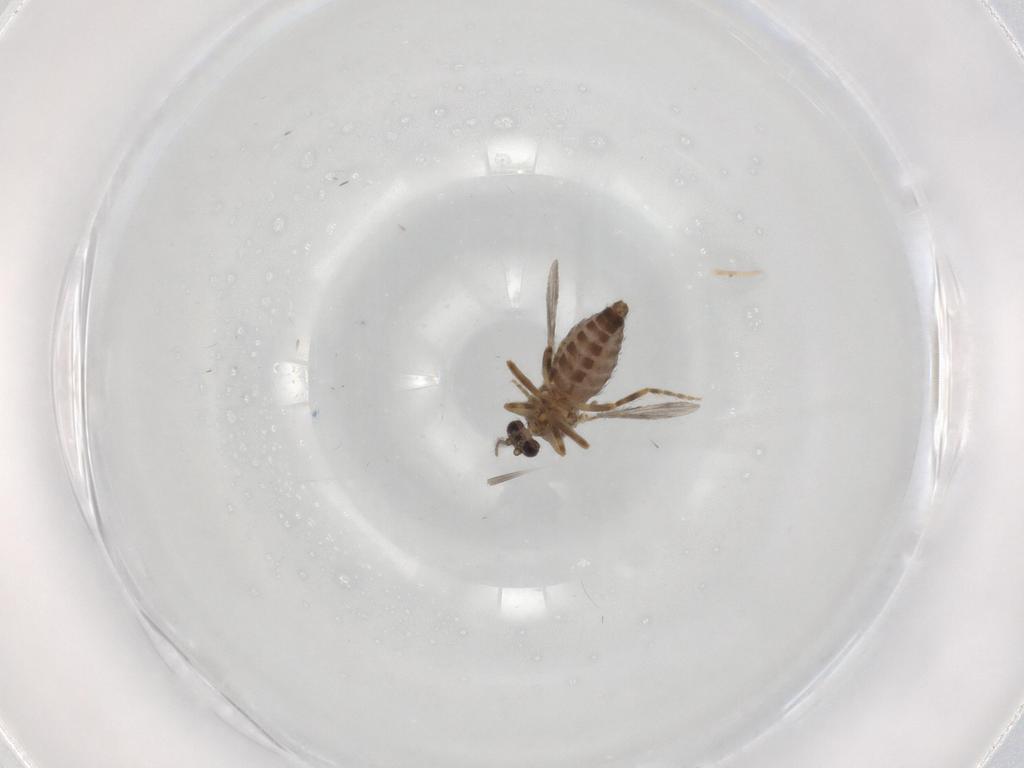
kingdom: Animalia
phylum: Arthropoda
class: Insecta
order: Diptera
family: Ceratopogonidae
